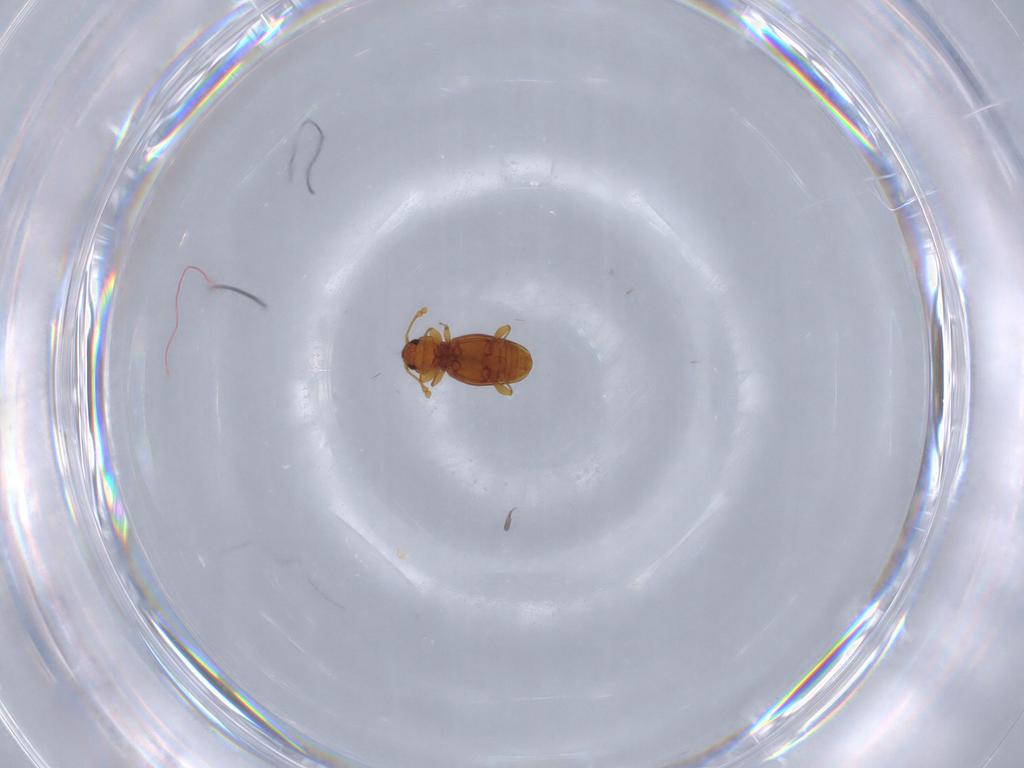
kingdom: Animalia
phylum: Arthropoda
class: Insecta
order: Coleoptera
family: Endomychidae
